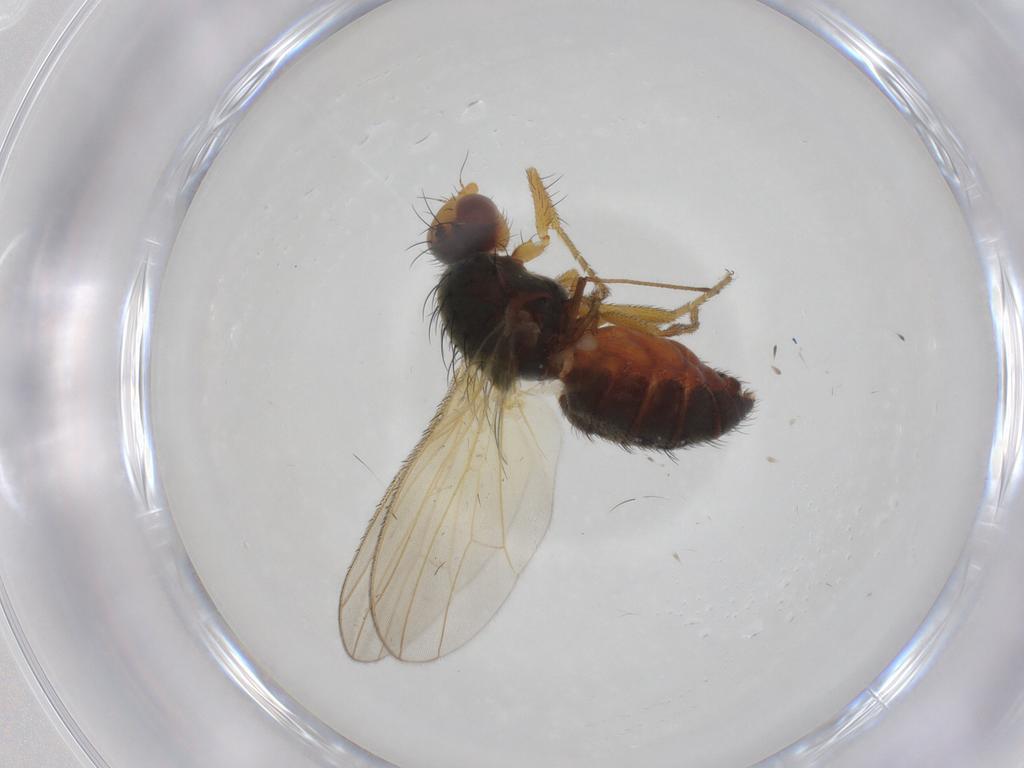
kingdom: Animalia
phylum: Arthropoda
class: Insecta
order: Diptera
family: Heleomyzidae
